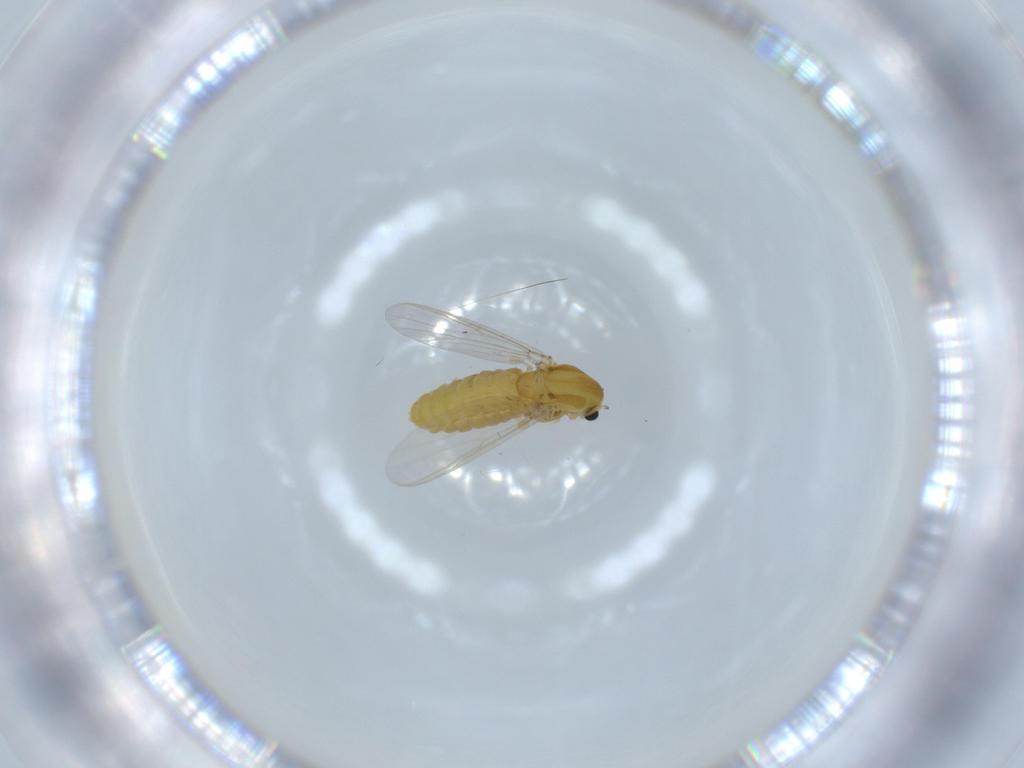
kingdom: Animalia
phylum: Arthropoda
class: Insecta
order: Diptera
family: Chironomidae
